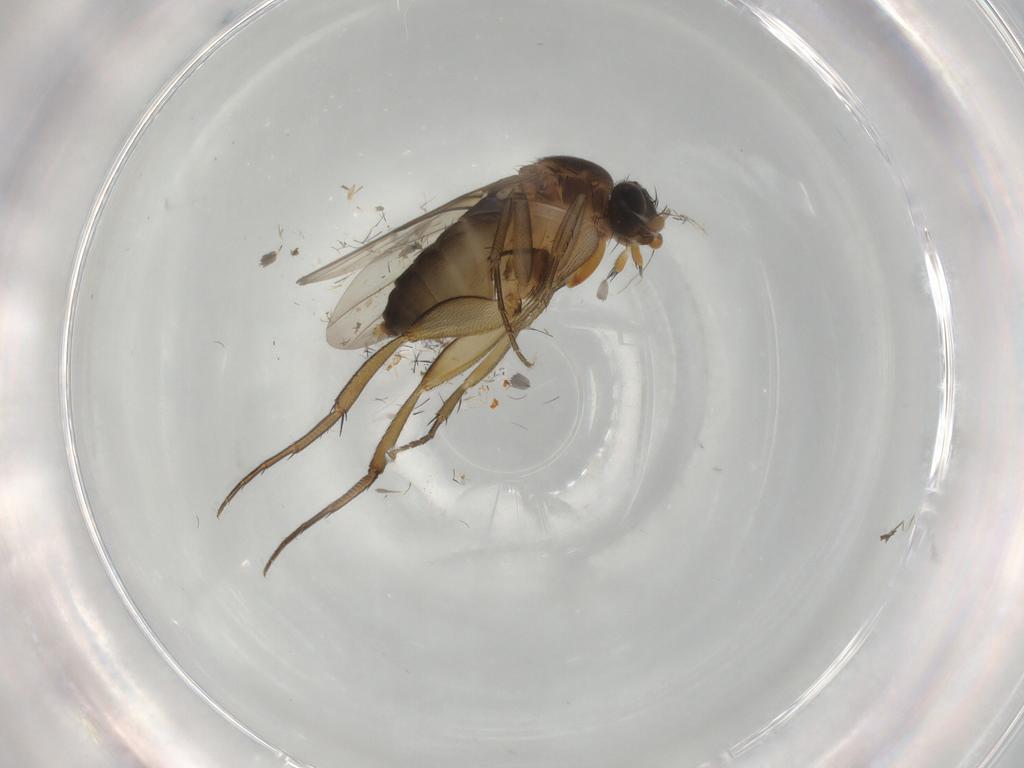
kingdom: Animalia
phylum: Arthropoda
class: Insecta
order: Diptera
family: Phoridae
